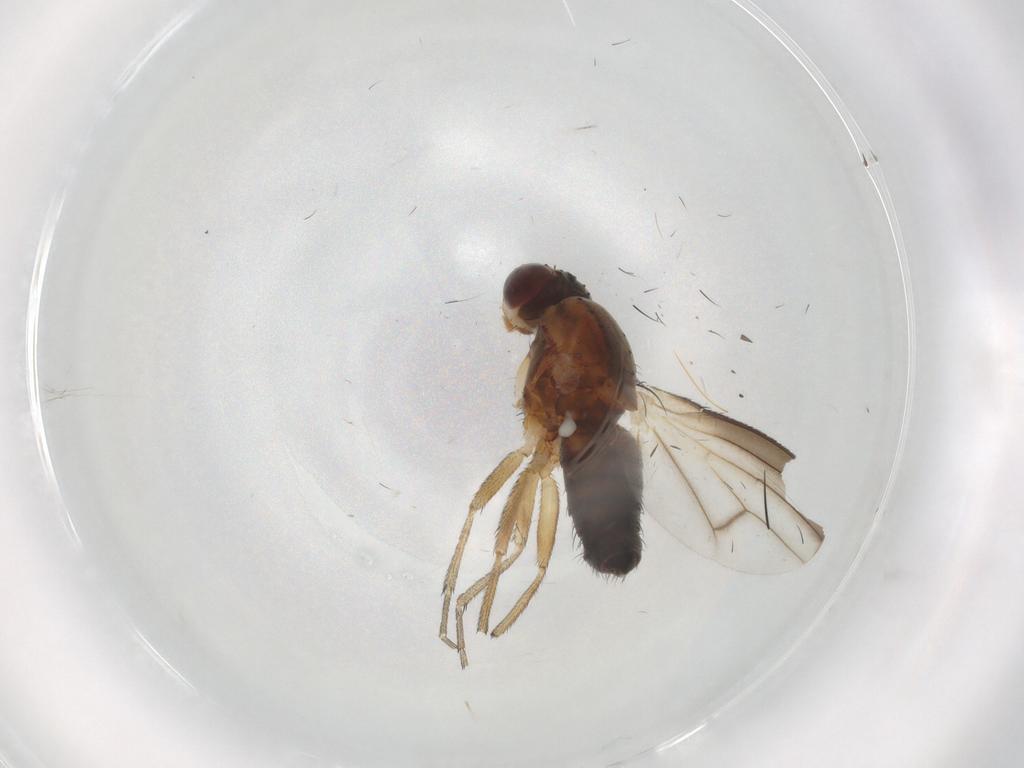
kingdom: Animalia
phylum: Arthropoda
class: Insecta
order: Diptera
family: Heleomyzidae
